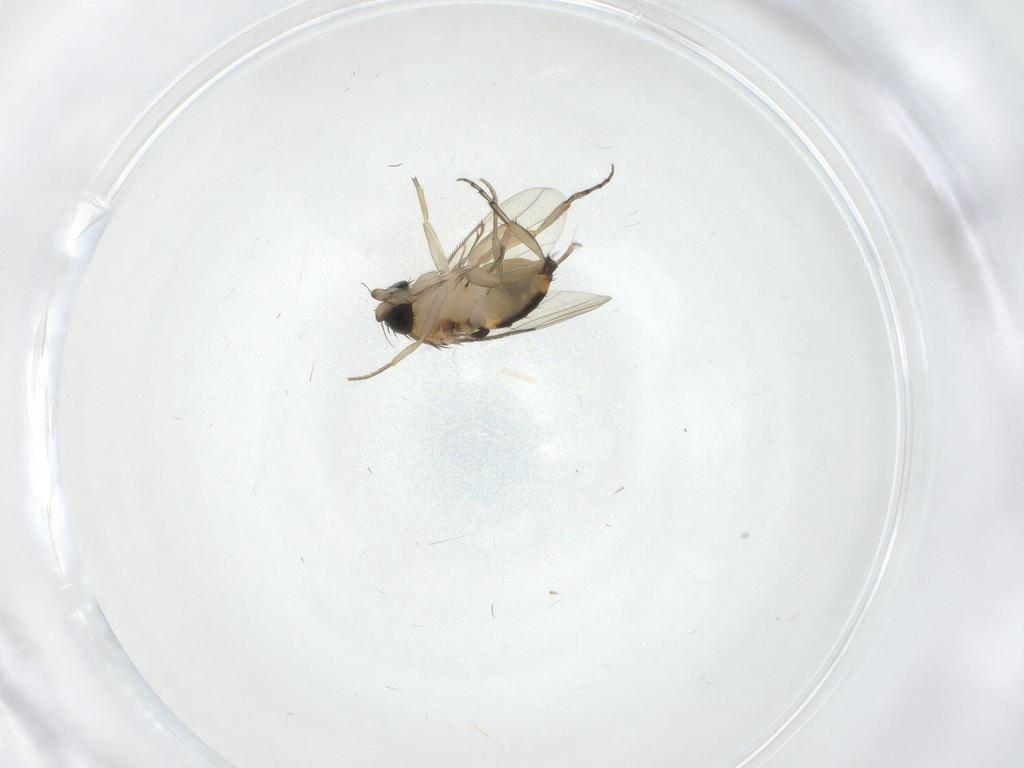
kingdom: Animalia
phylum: Arthropoda
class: Insecta
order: Diptera
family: Phoridae
